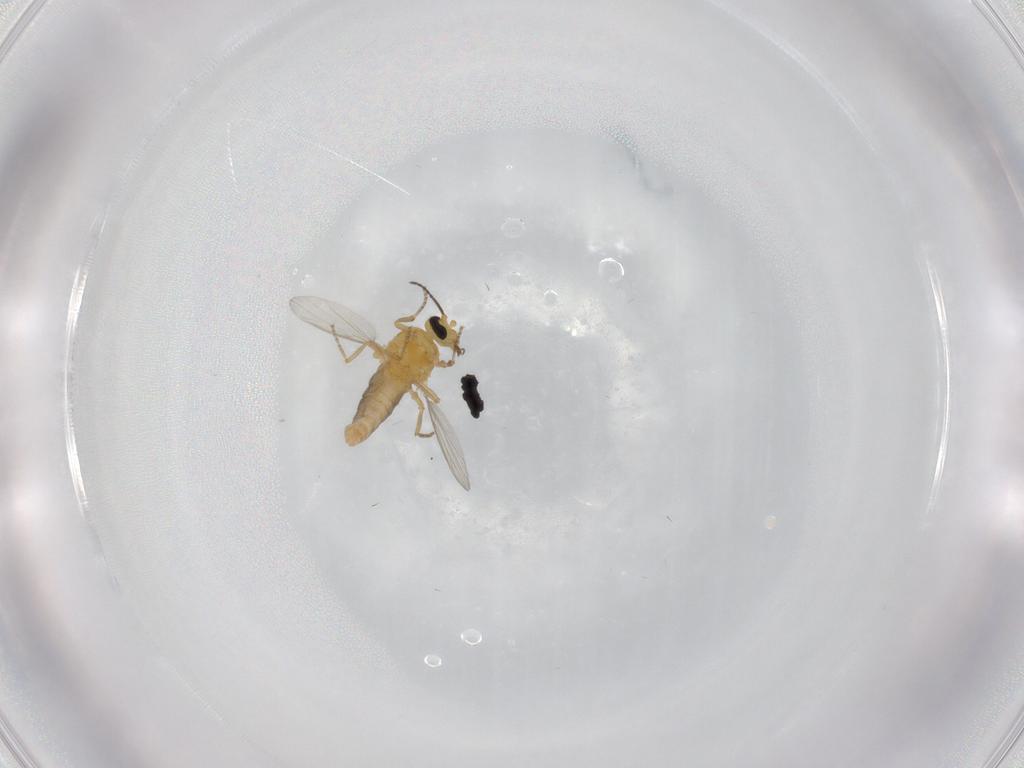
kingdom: Animalia
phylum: Arthropoda
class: Insecta
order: Diptera
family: Ceratopogonidae
